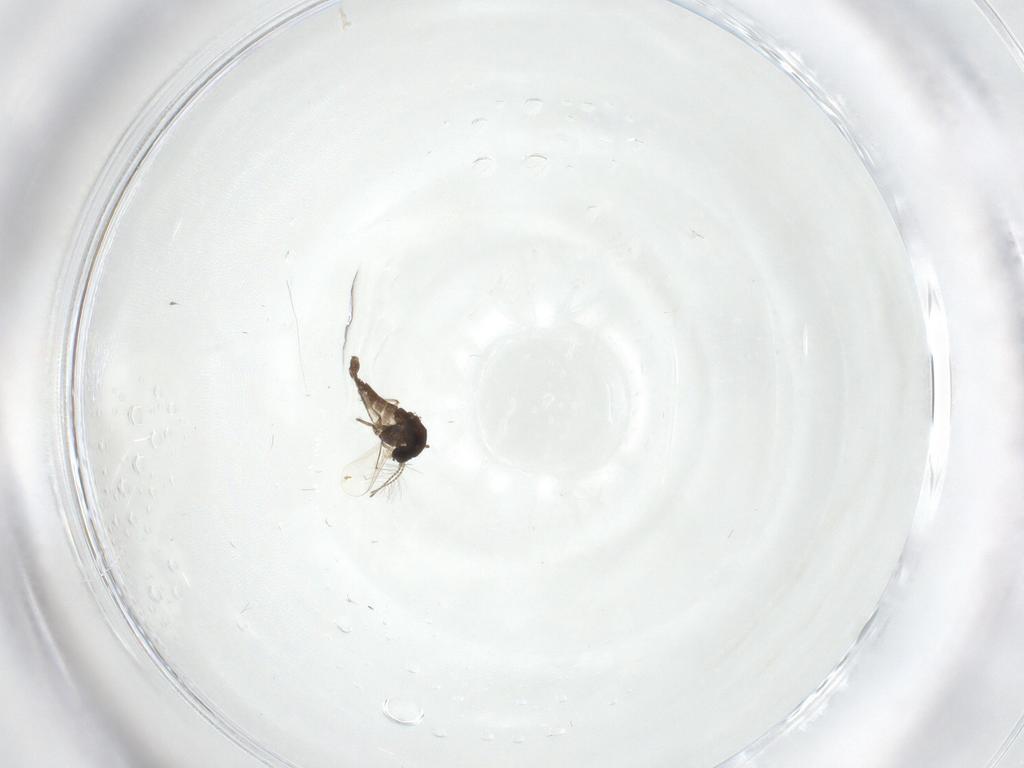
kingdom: Animalia
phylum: Arthropoda
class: Insecta
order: Diptera
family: Chironomidae
